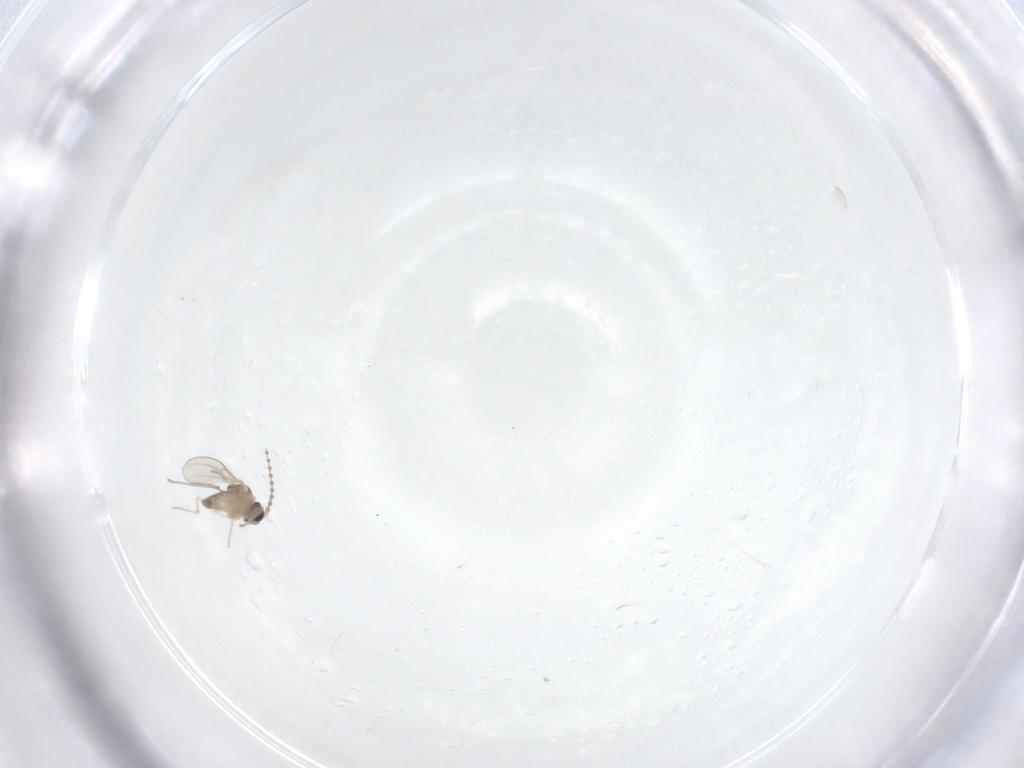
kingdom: Animalia
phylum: Arthropoda
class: Insecta
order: Diptera
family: Cecidomyiidae
